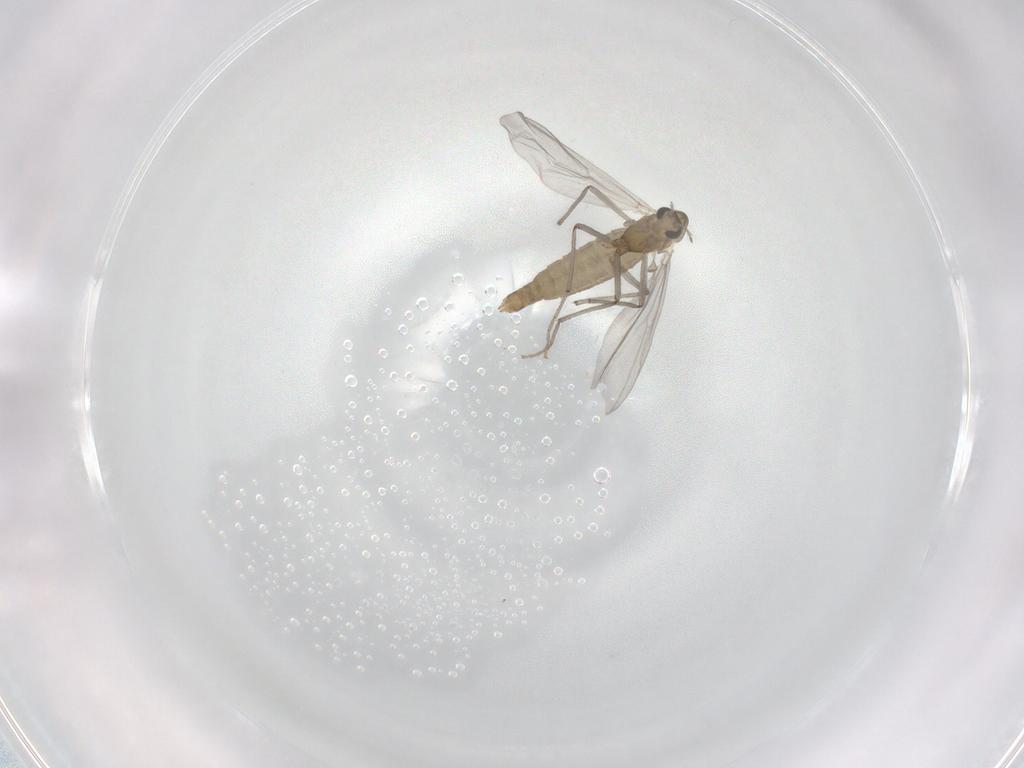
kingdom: Animalia
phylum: Arthropoda
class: Insecta
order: Diptera
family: Chironomidae
